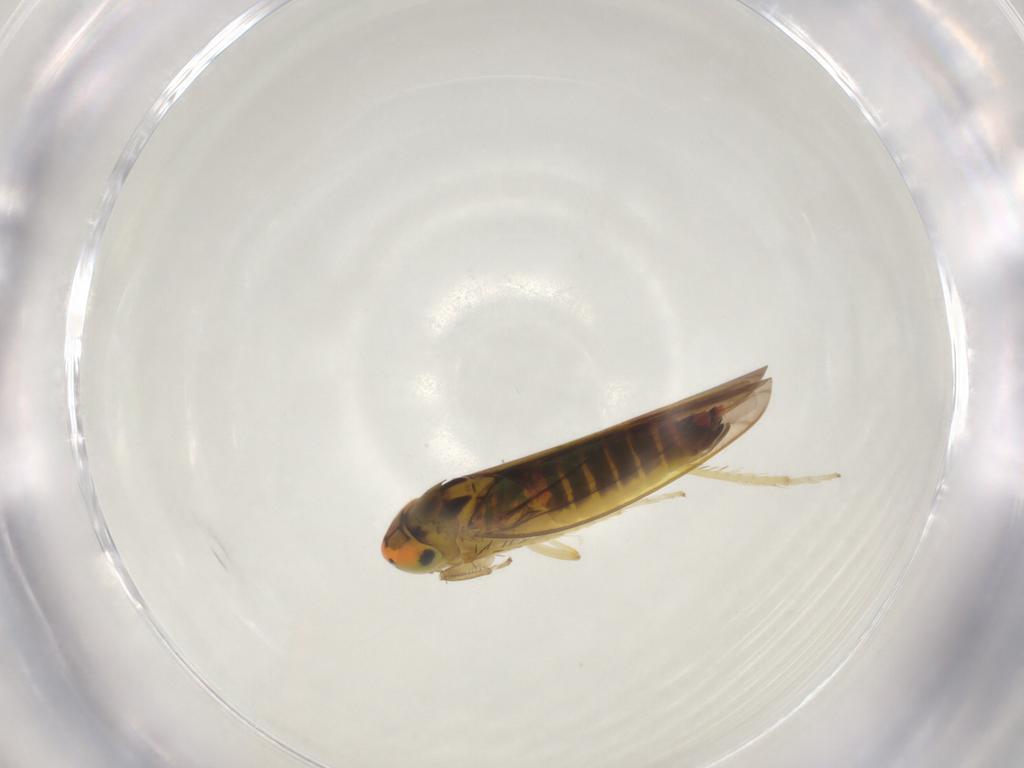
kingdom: Animalia
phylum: Arthropoda
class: Insecta
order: Hemiptera
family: Cicadellidae
